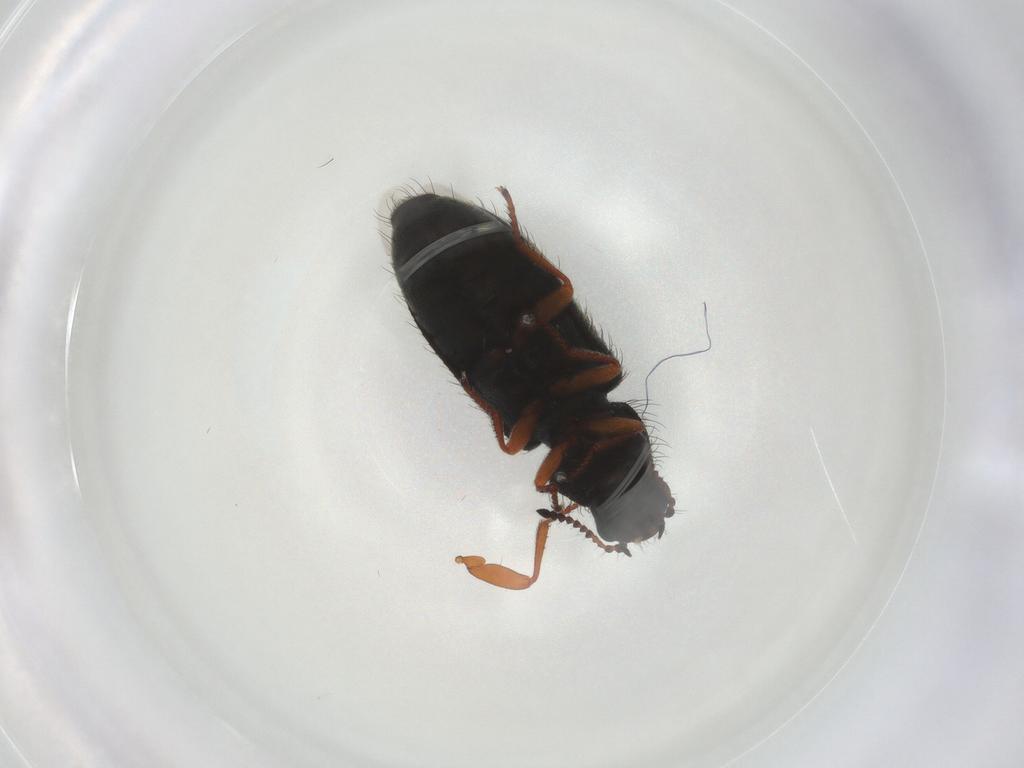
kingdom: Animalia
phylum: Arthropoda
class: Insecta
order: Coleoptera
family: Melyridae
